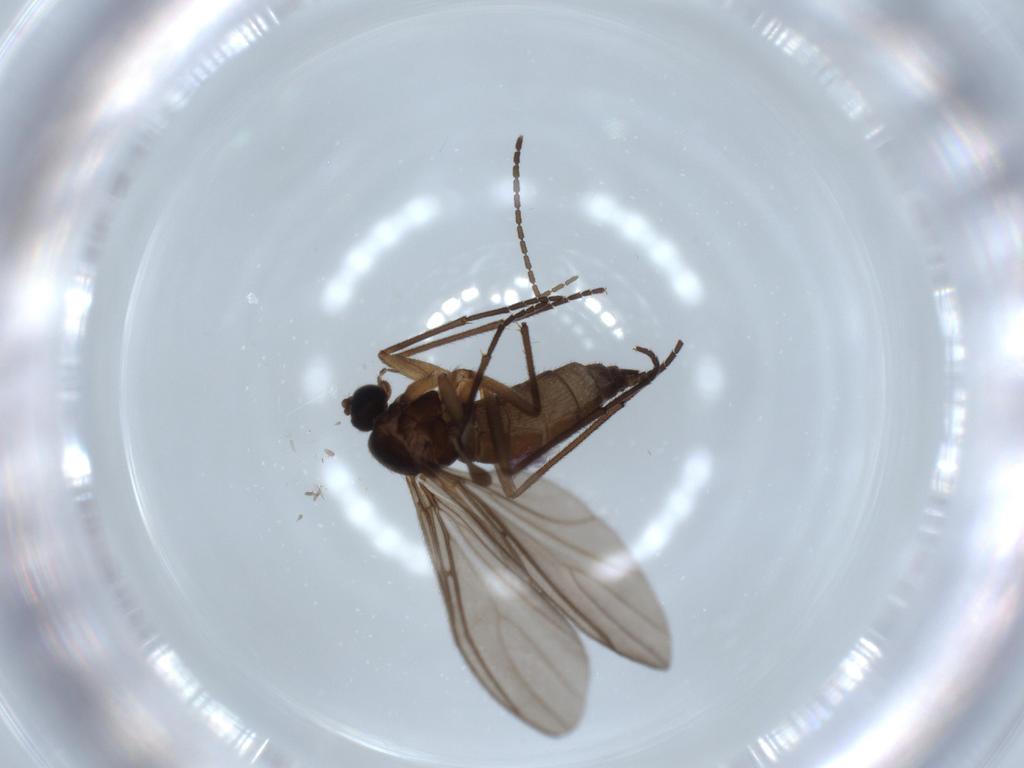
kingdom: Animalia
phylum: Arthropoda
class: Insecta
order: Diptera
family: Sciaridae
